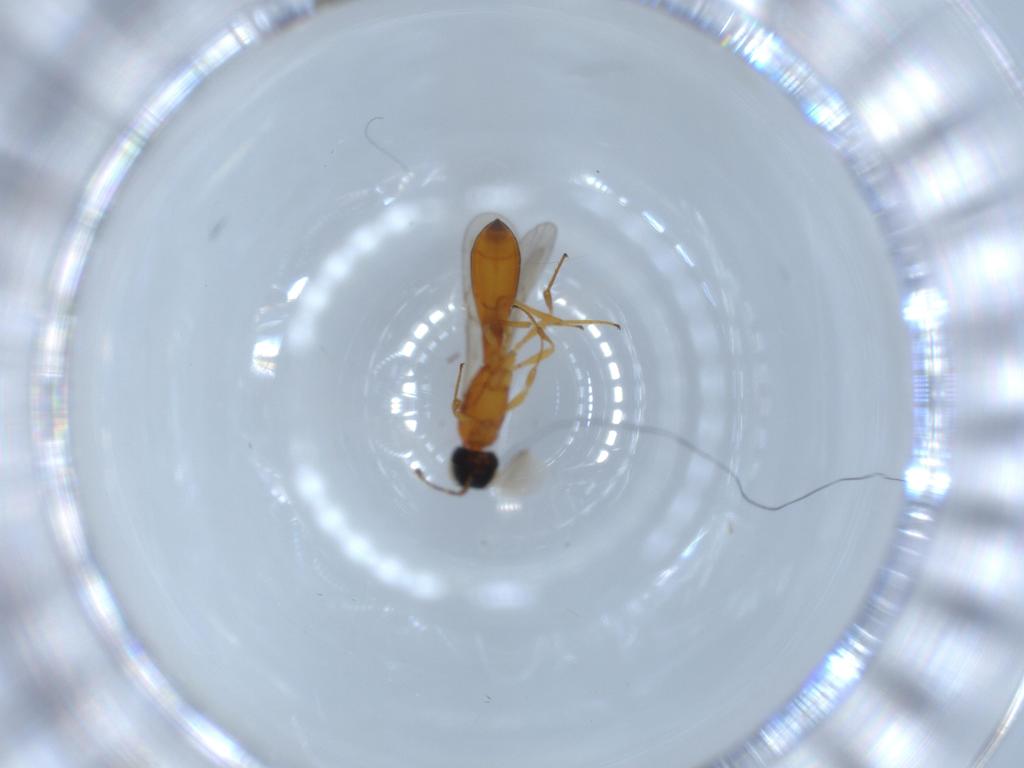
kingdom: Animalia
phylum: Arthropoda
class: Insecta
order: Hymenoptera
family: Scelionidae
